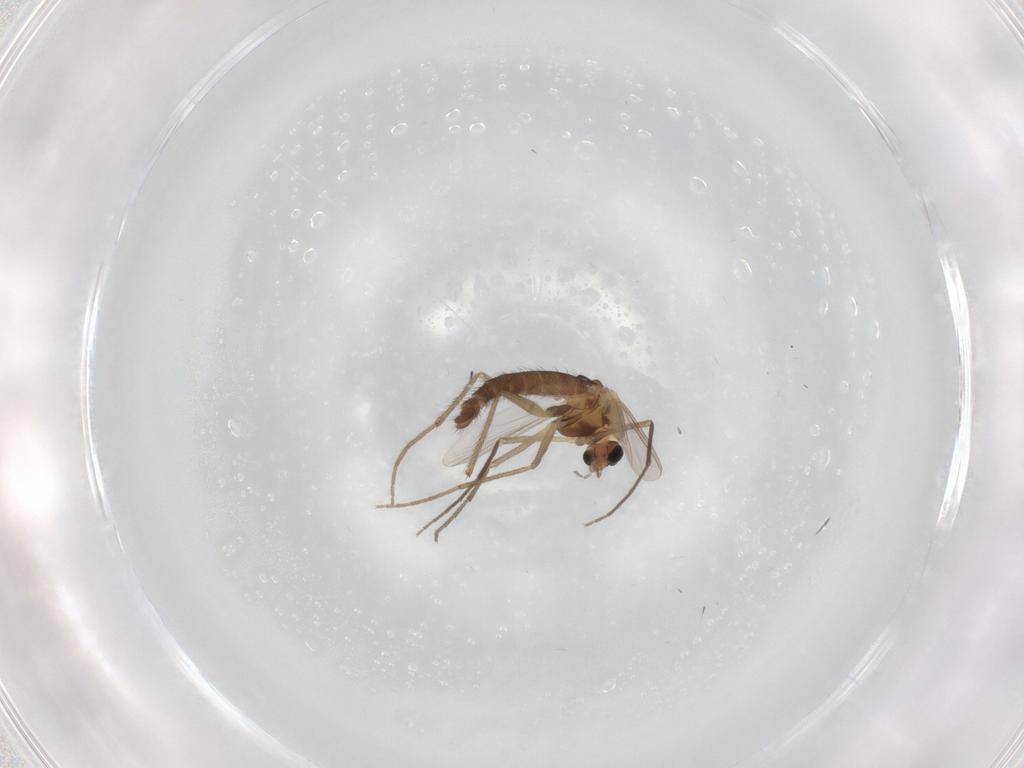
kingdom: Animalia
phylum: Arthropoda
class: Insecta
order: Diptera
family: Chironomidae
